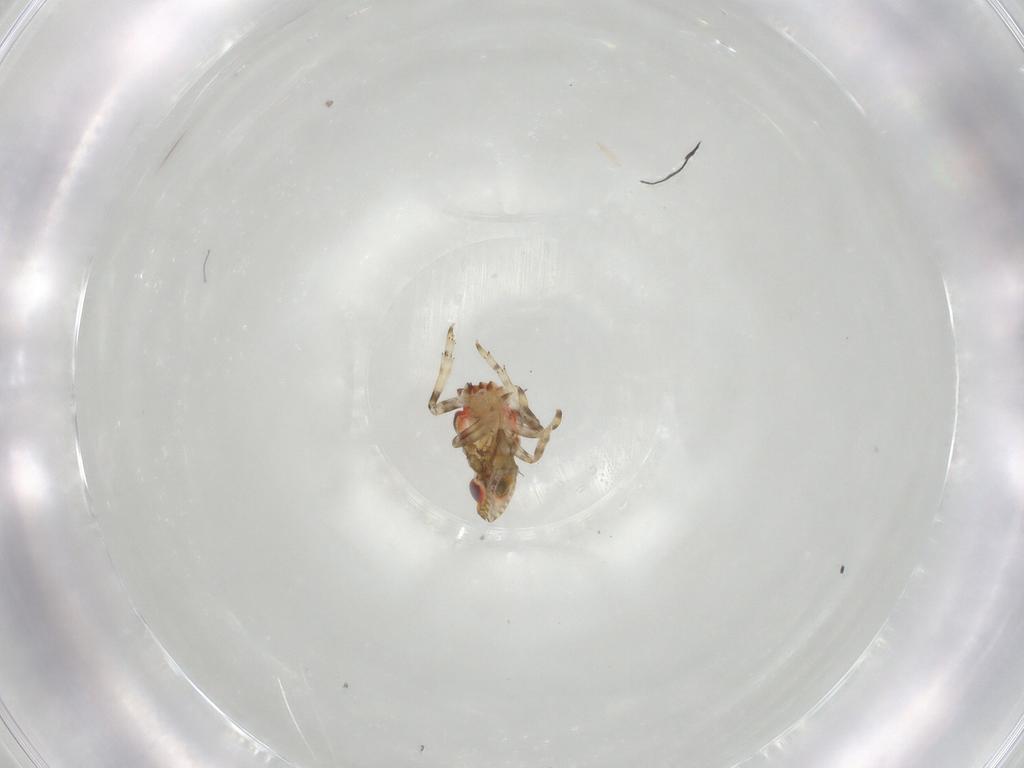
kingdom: Animalia
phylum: Arthropoda
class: Insecta
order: Hemiptera
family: Tropiduchidae
